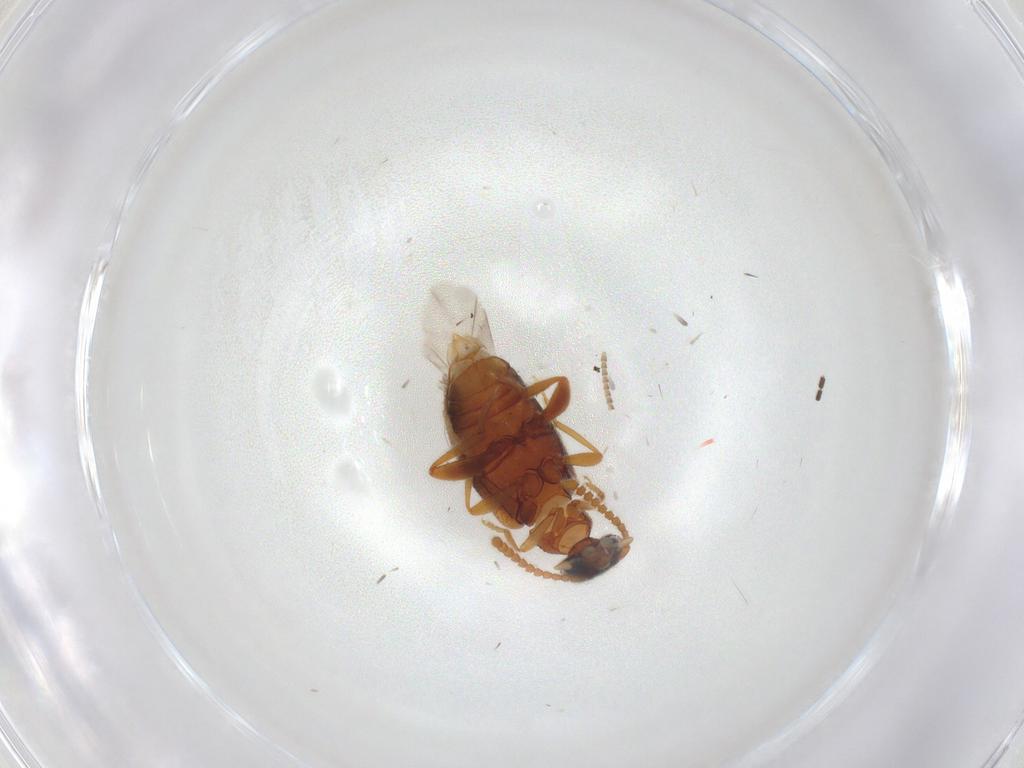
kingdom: Animalia
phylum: Arthropoda
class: Insecta
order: Coleoptera
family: Aderidae
